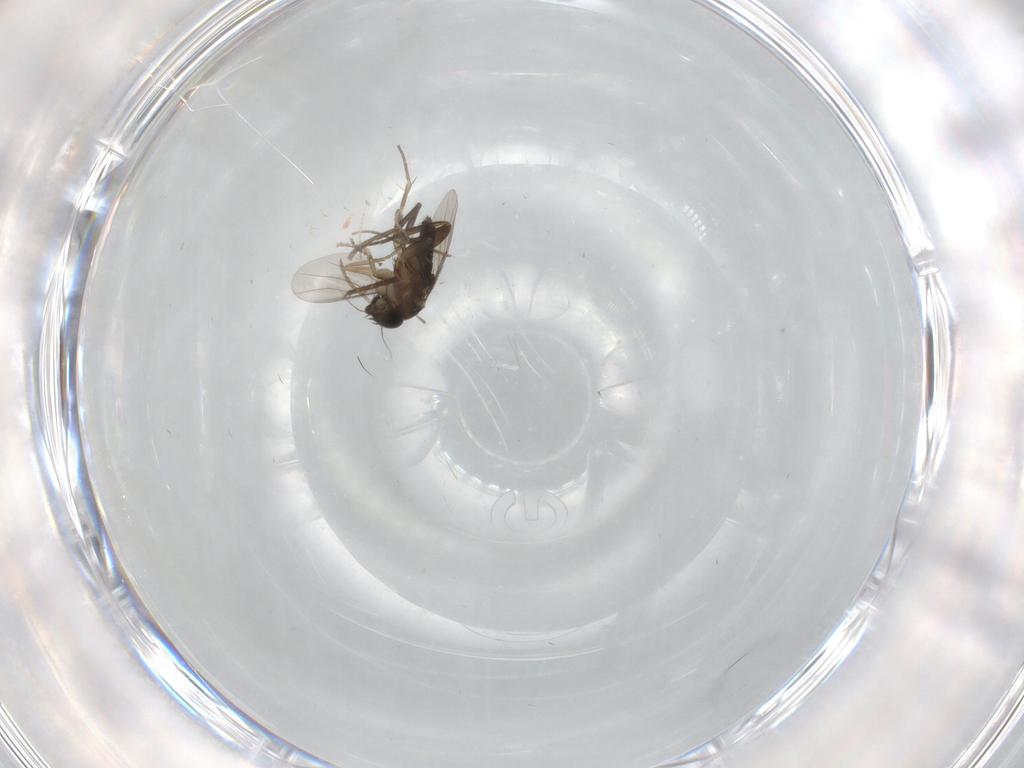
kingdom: Animalia
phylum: Arthropoda
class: Insecta
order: Diptera
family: Phoridae
